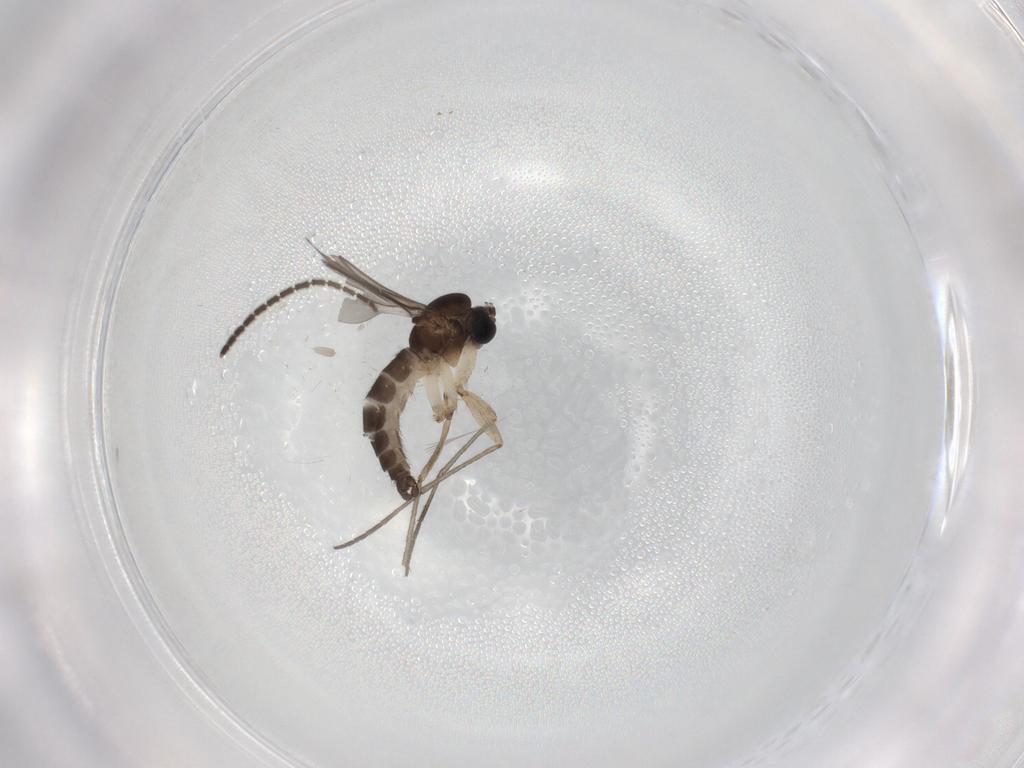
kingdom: Animalia
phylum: Arthropoda
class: Insecta
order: Diptera
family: Sciaridae
